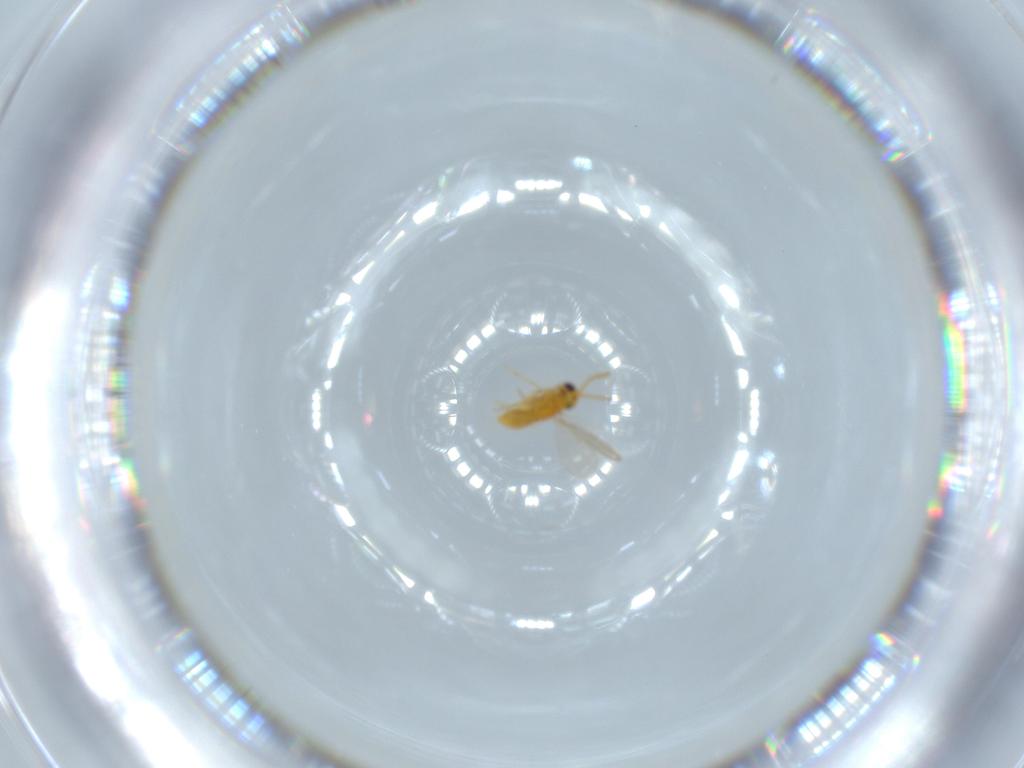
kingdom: Animalia
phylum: Arthropoda
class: Insecta
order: Hymenoptera
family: Aphelinidae
